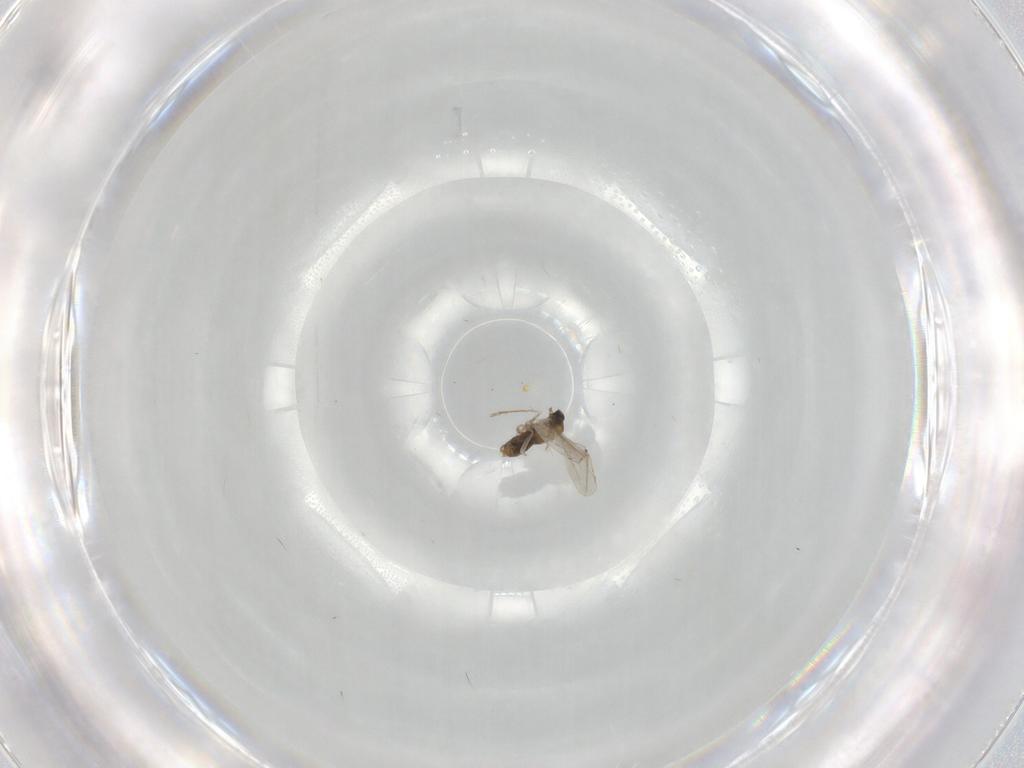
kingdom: Animalia
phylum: Arthropoda
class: Insecta
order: Diptera
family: Cecidomyiidae
